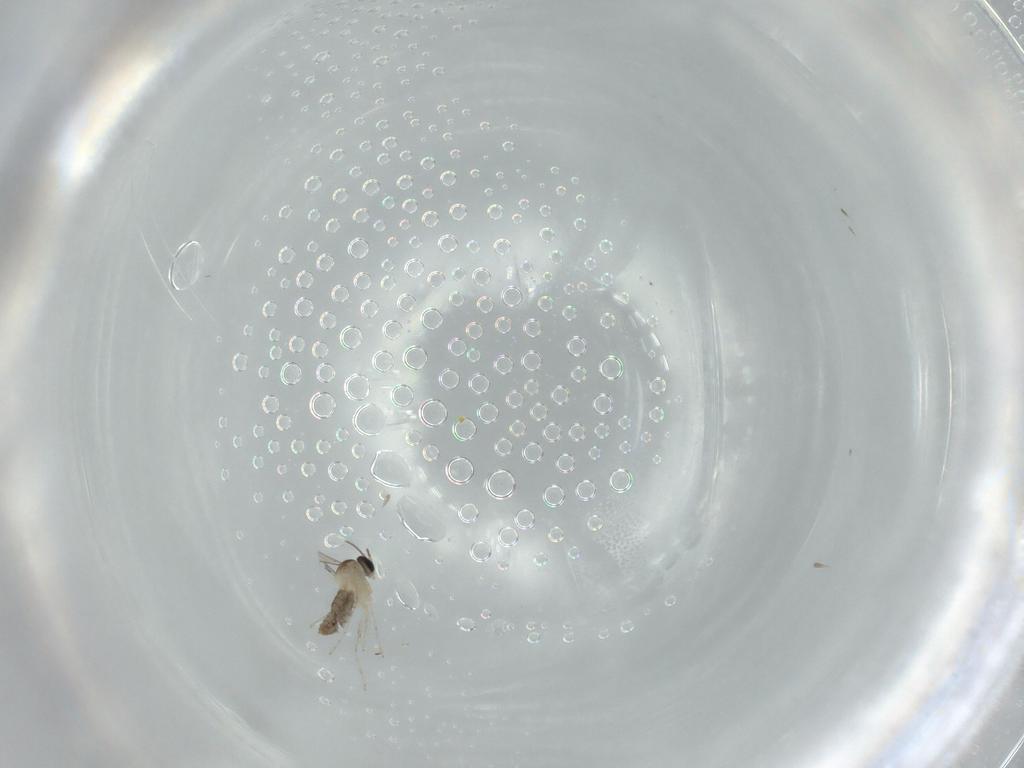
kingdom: Animalia
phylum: Arthropoda
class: Insecta
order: Diptera
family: Cecidomyiidae
